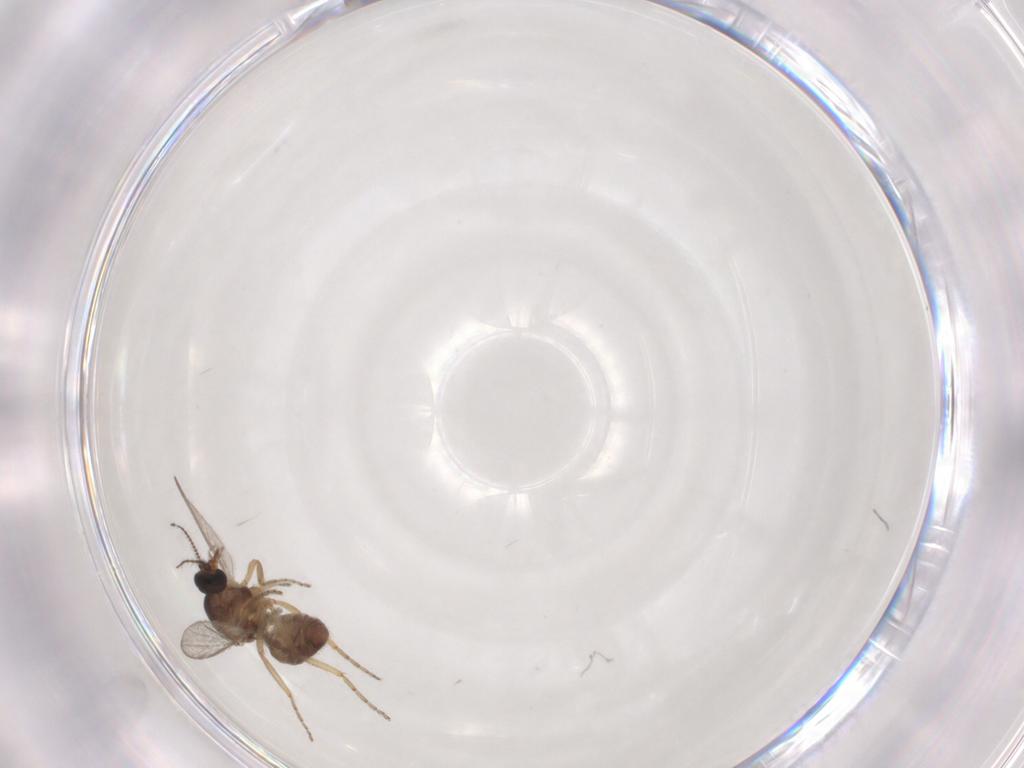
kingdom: Animalia
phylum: Arthropoda
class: Insecta
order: Diptera
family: Ceratopogonidae
